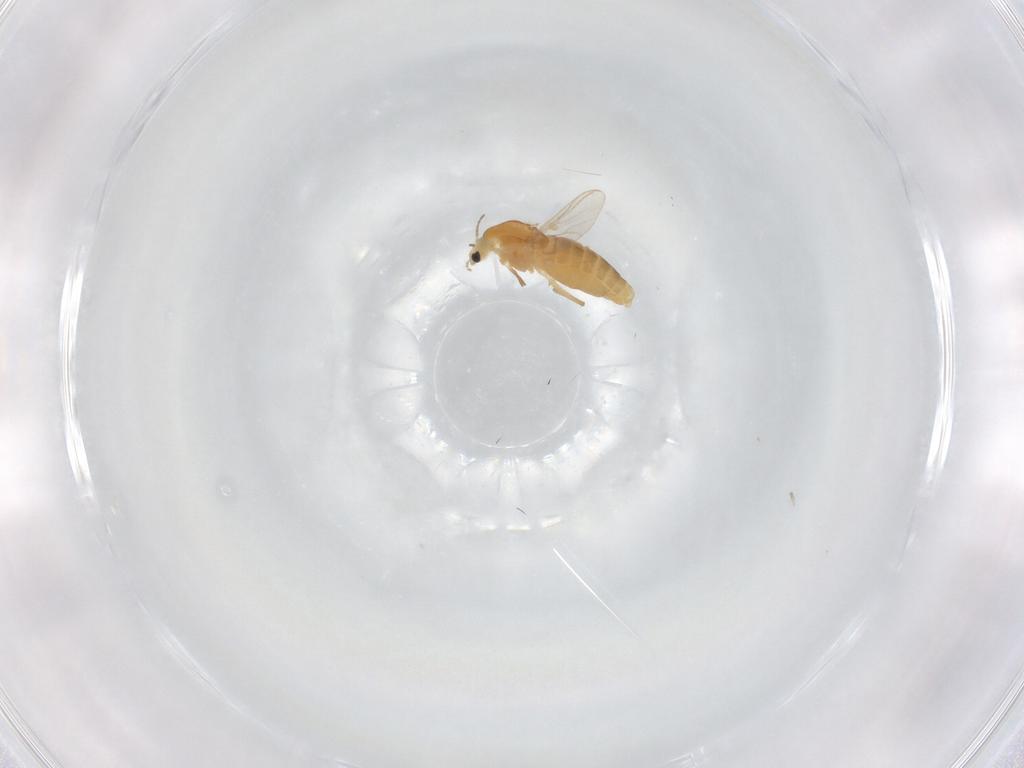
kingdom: Animalia
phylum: Arthropoda
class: Insecta
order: Diptera
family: Chironomidae
